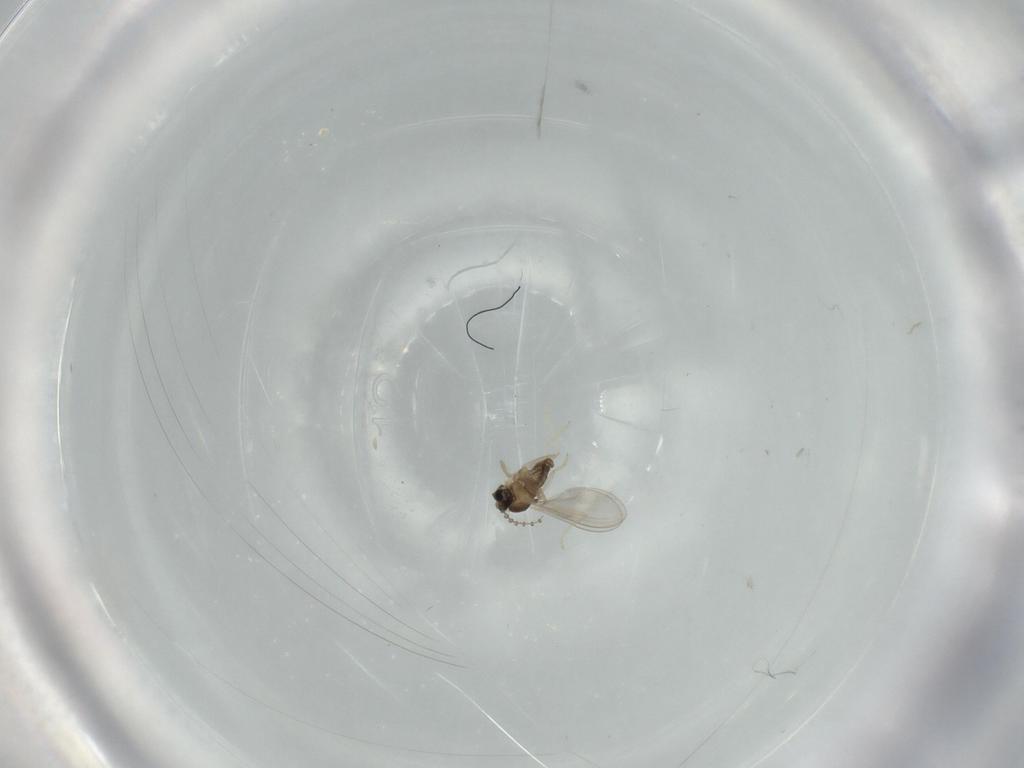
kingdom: Animalia
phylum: Arthropoda
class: Insecta
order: Diptera
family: Cecidomyiidae
